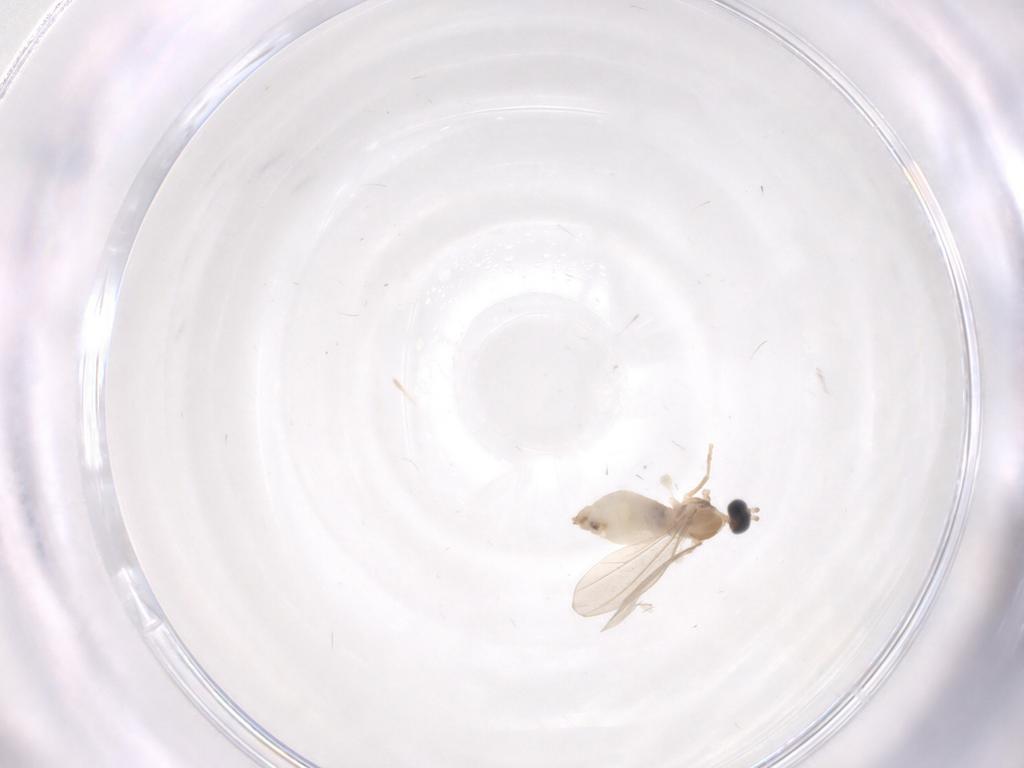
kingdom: Animalia
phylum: Arthropoda
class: Insecta
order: Diptera
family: Cecidomyiidae
